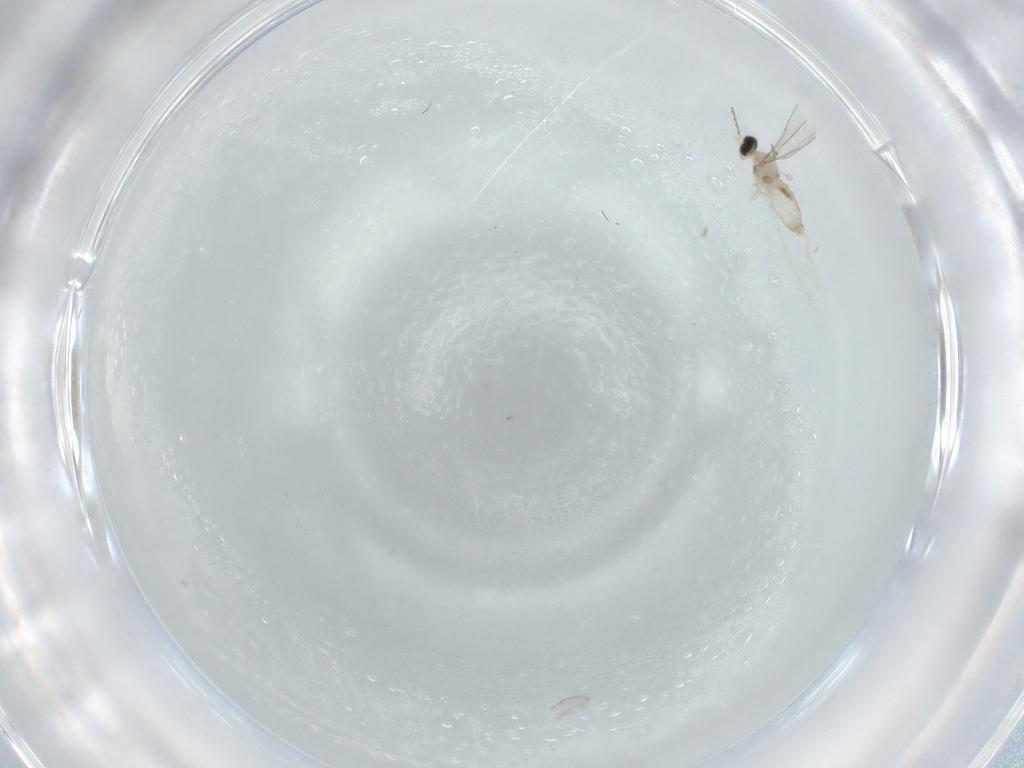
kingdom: Animalia
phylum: Arthropoda
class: Insecta
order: Diptera
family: Cecidomyiidae
